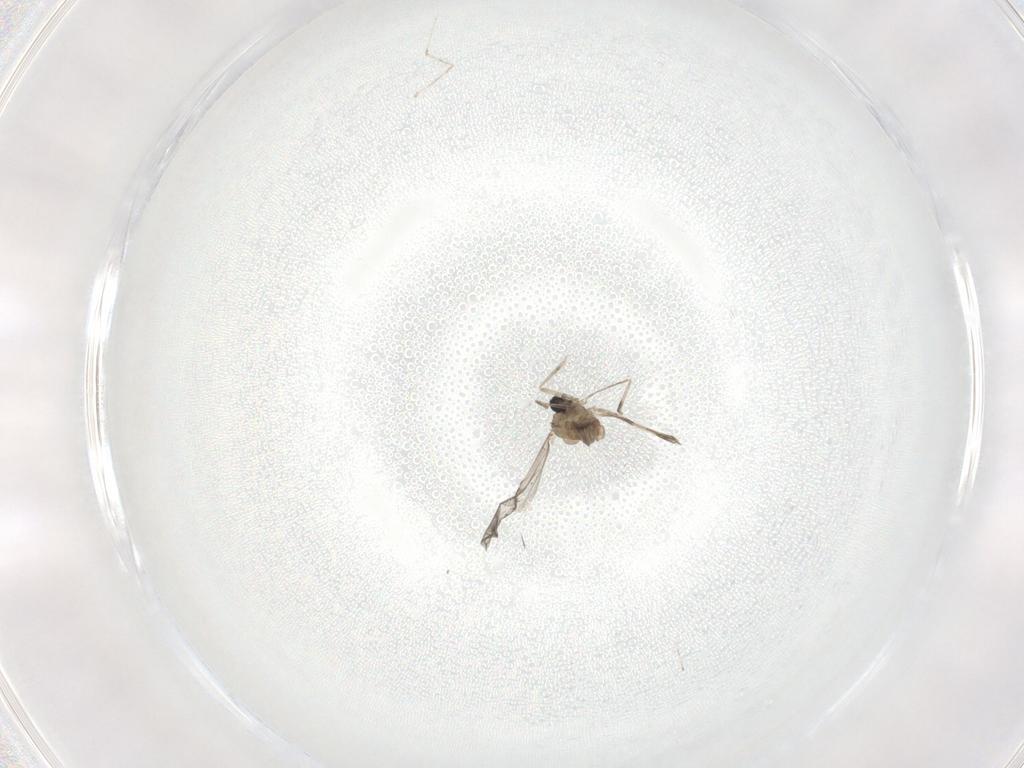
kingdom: Animalia
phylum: Arthropoda
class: Insecta
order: Diptera
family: Cecidomyiidae
